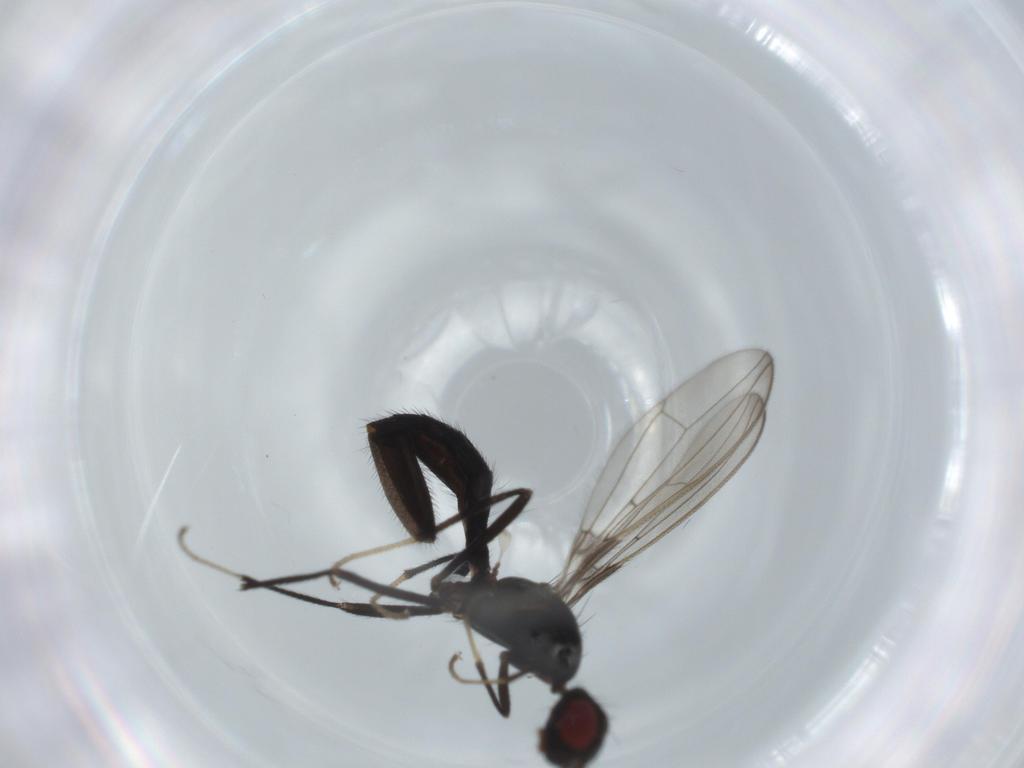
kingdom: Animalia
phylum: Arthropoda
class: Insecta
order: Diptera
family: Richardiidae
